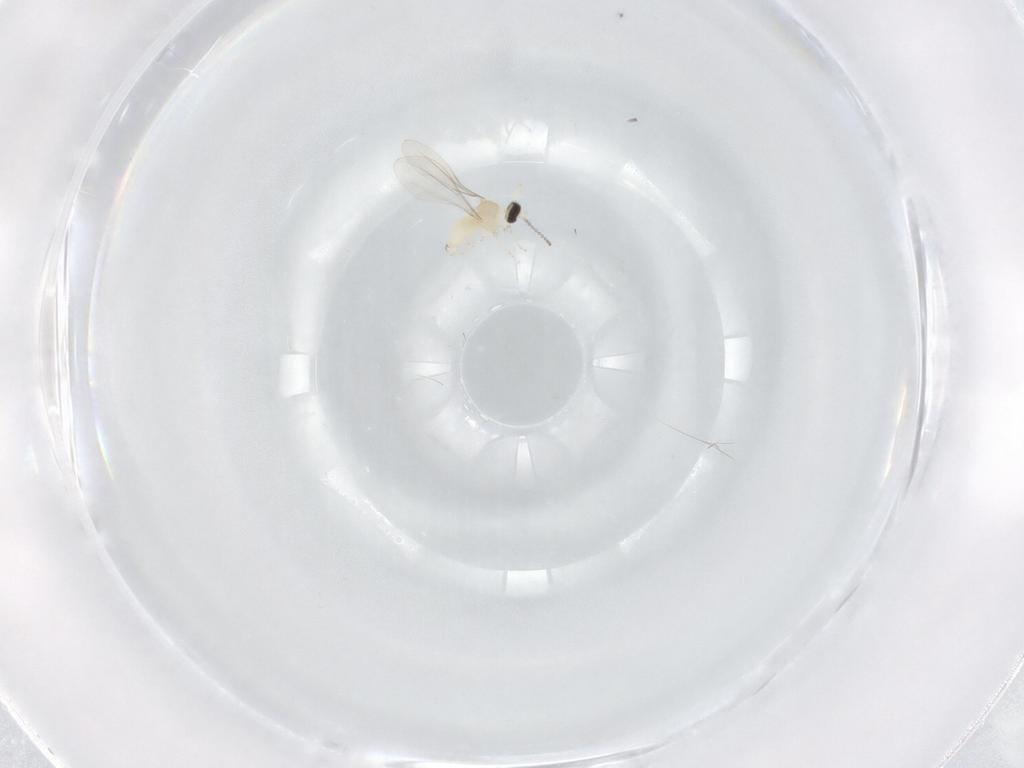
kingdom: Animalia
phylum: Arthropoda
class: Insecta
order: Diptera
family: Cecidomyiidae
